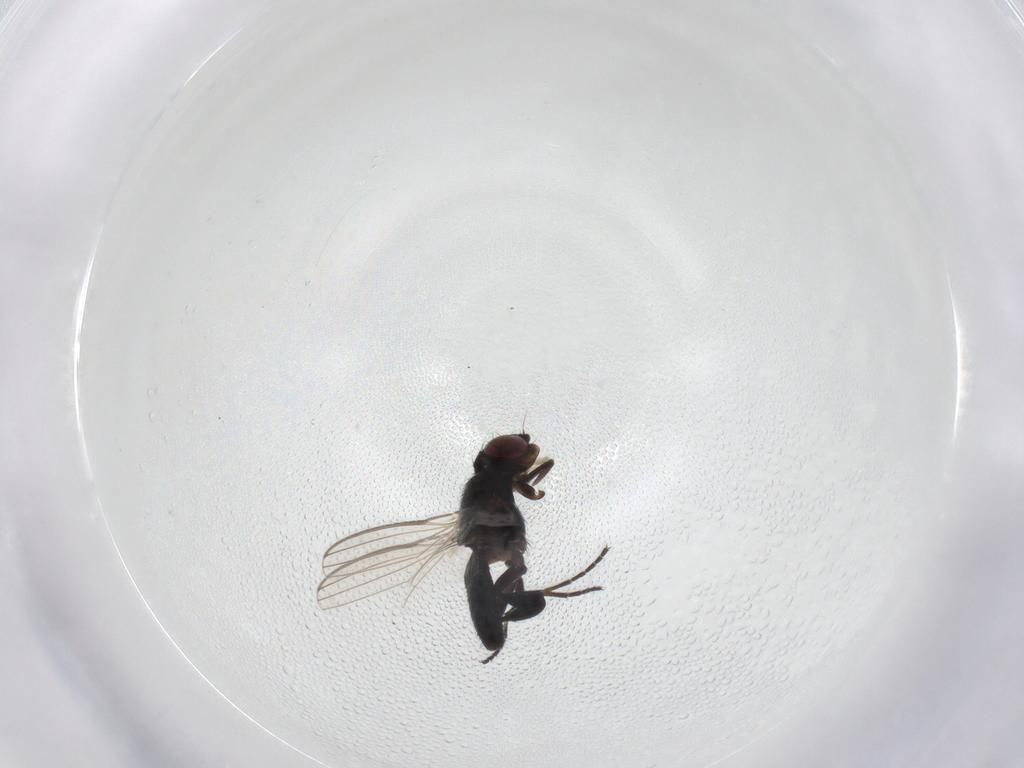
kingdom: Animalia
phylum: Arthropoda
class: Insecta
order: Diptera
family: Milichiidae
